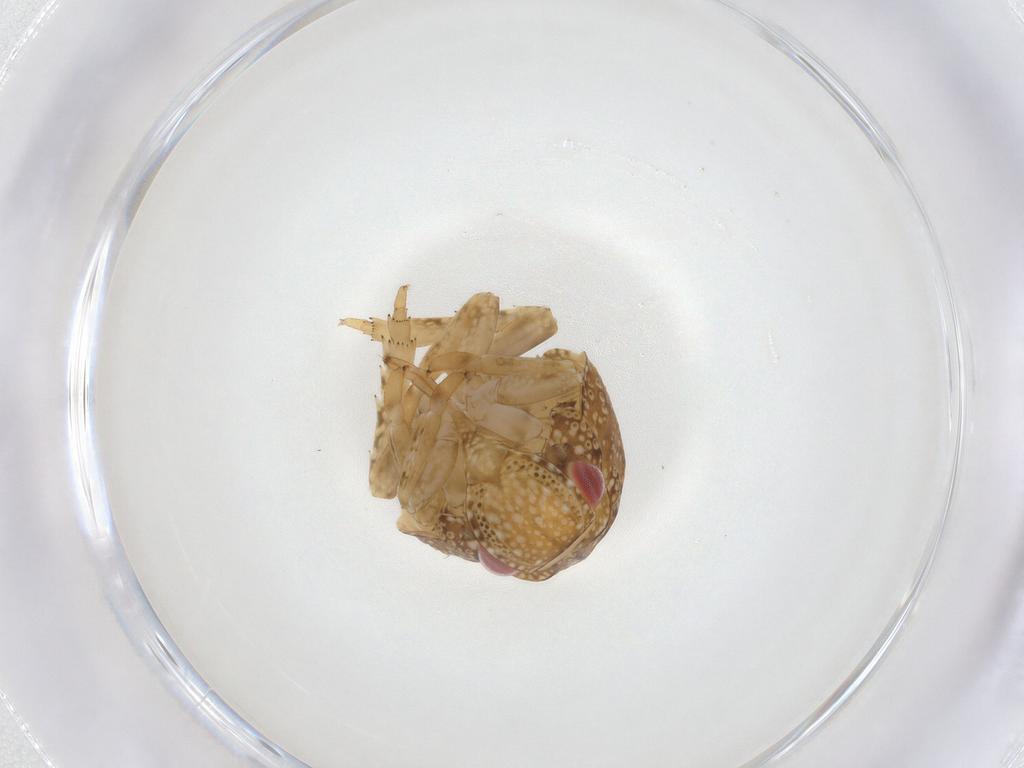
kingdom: Animalia
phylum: Arthropoda
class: Insecta
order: Hemiptera
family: Acanaloniidae
